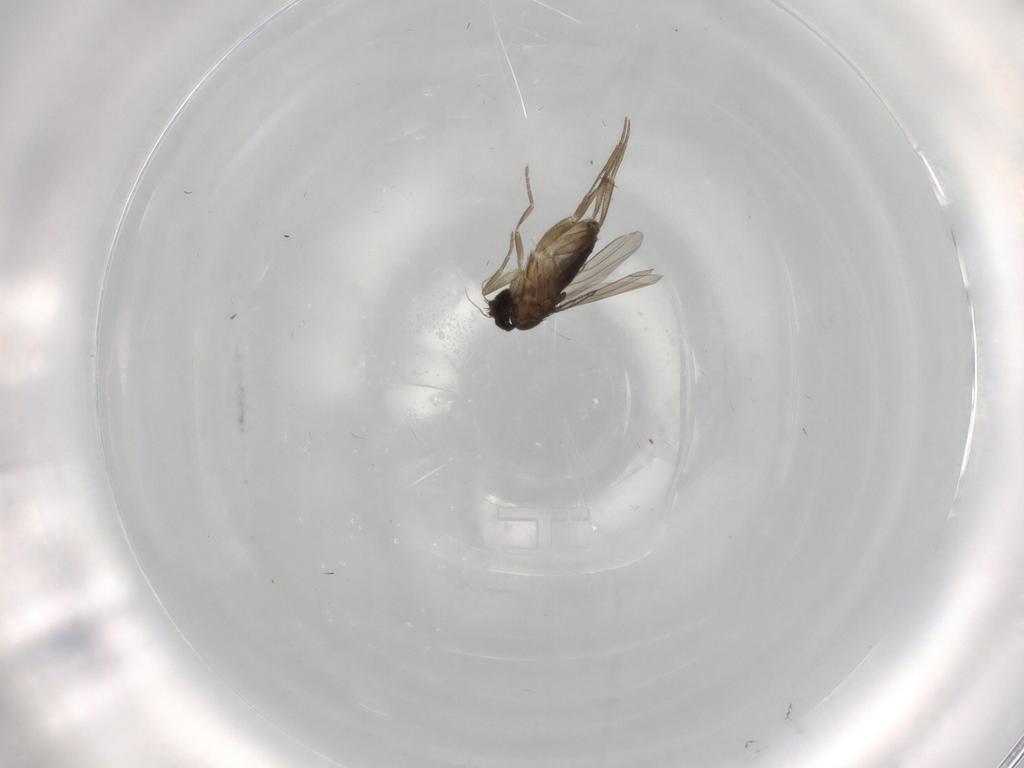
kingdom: Animalia
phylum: Arthropoda
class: Insecta
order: Diptera
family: Phoridae
